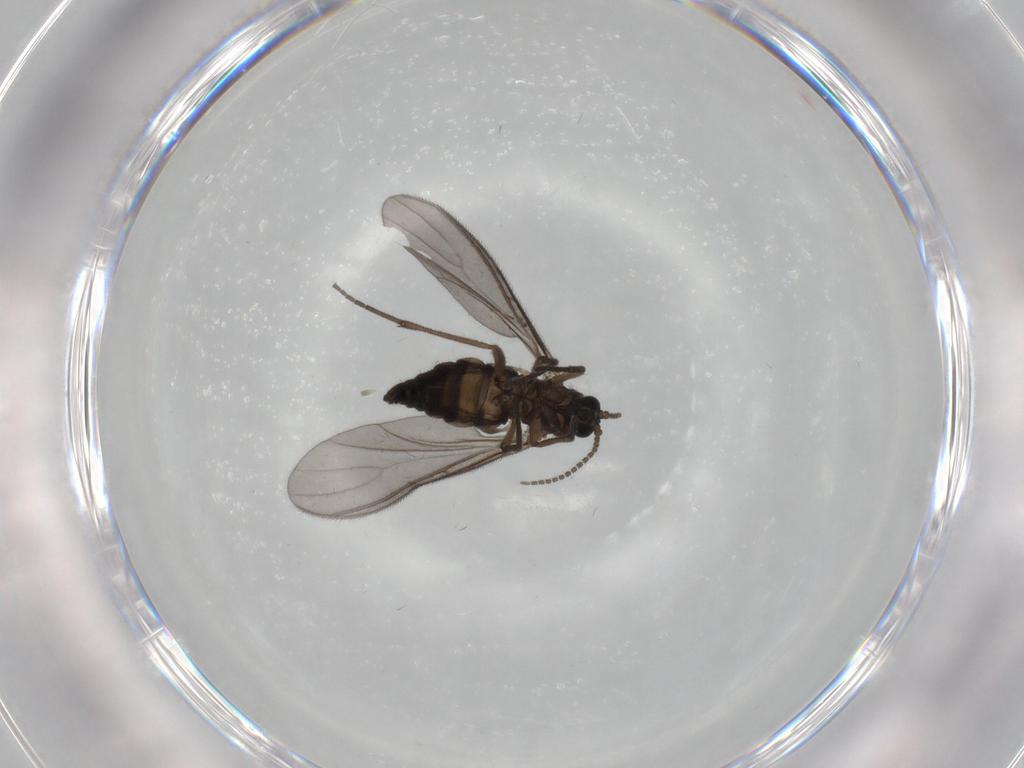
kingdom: Animalia
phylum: Arthropoda
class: Insecta
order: Diptera
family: Sciaridae
